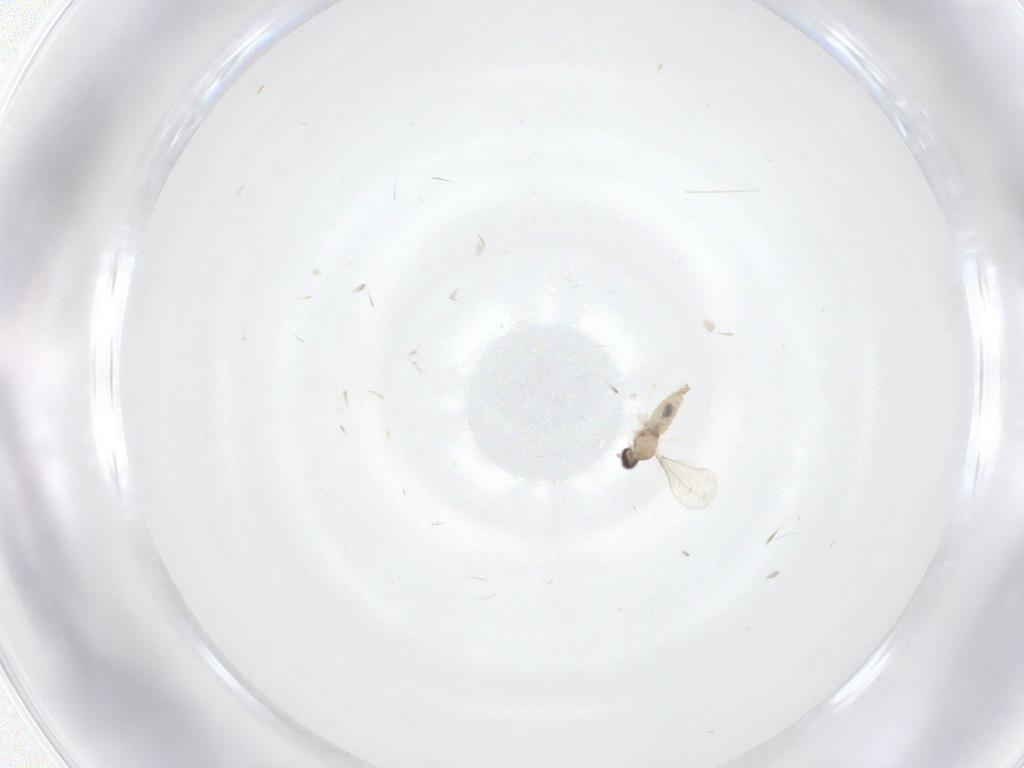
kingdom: Animalia
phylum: Arthropoda
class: Insecta
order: Diptera
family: Cecidomyiidae
